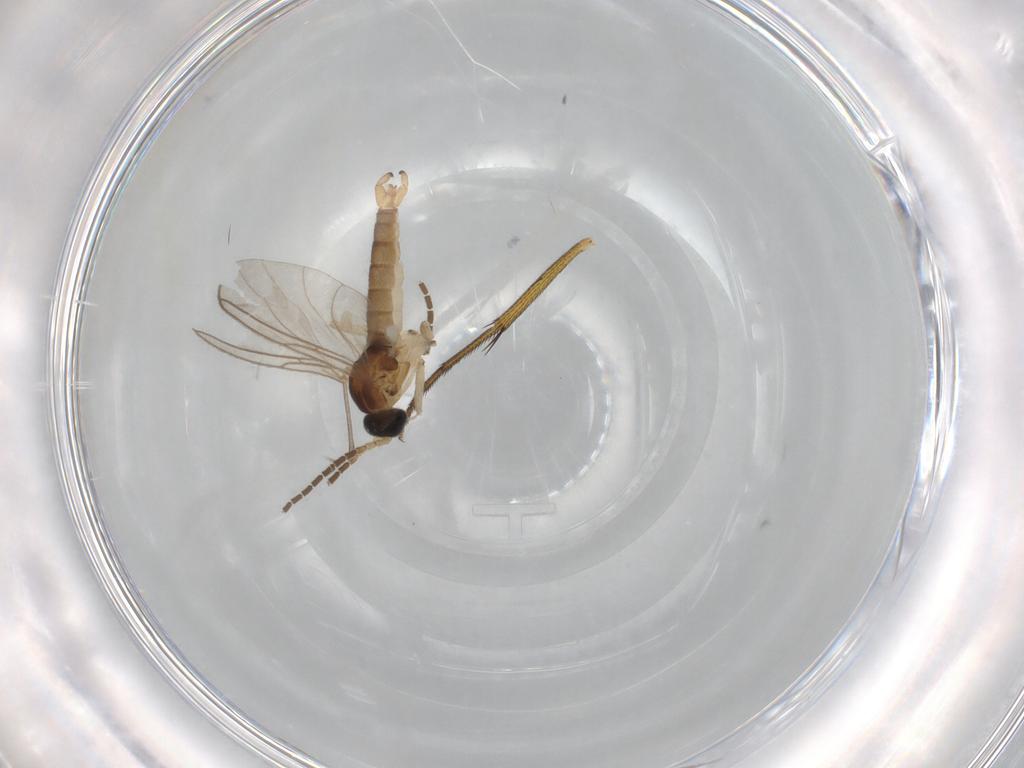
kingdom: Animalia
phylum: Arthropoda
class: Insecta
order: Diptera
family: Sciaridae
